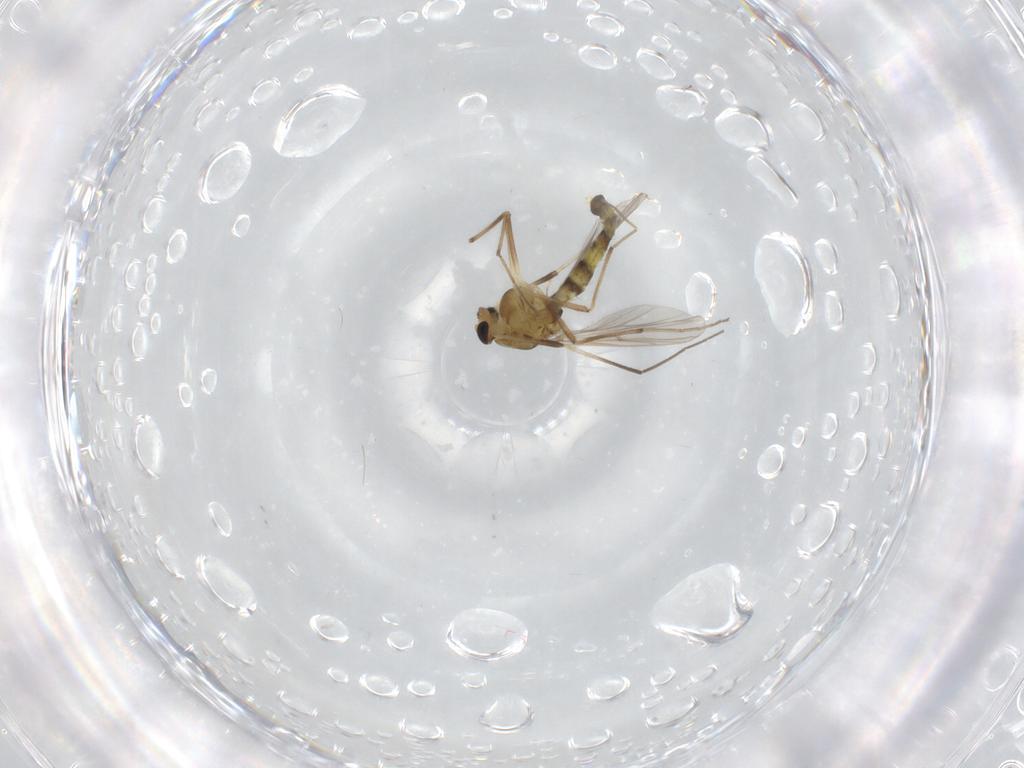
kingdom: Animalia
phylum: Arthropoda
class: Insecta
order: Diptera
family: Chironomidae
